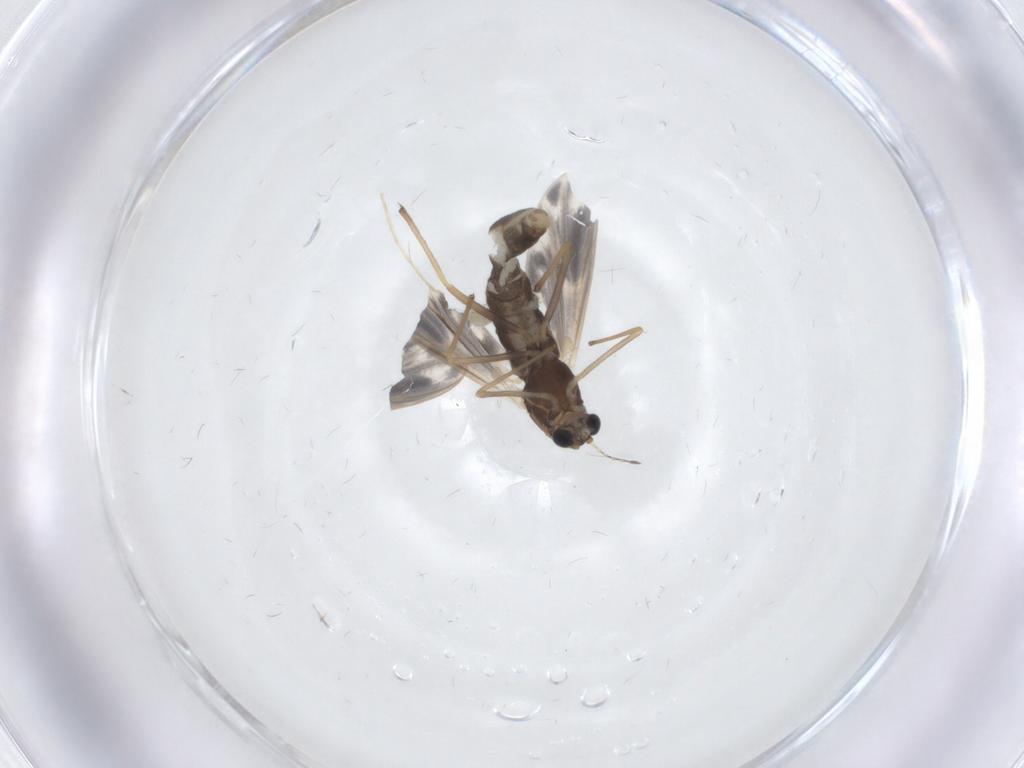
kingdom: Animalia
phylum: Arthropoda
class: Insecta
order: Diptera
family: Chironomidae
